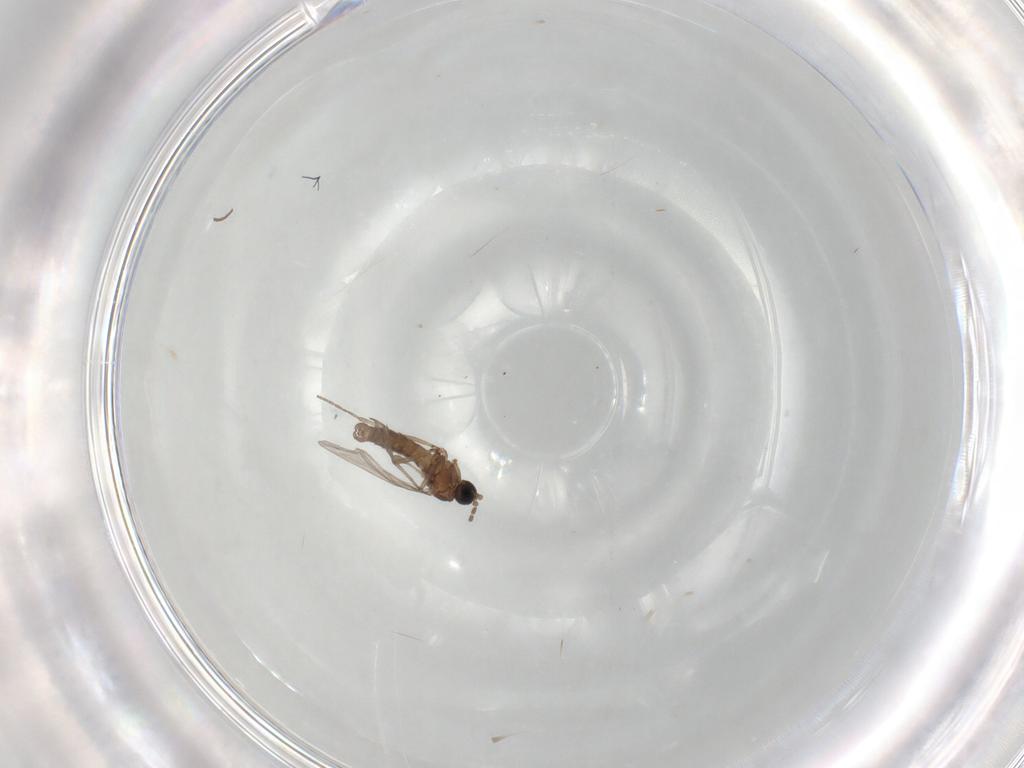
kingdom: Animalia
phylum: Arthropoda
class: Insecta
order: Diptera
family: Sciaridae
